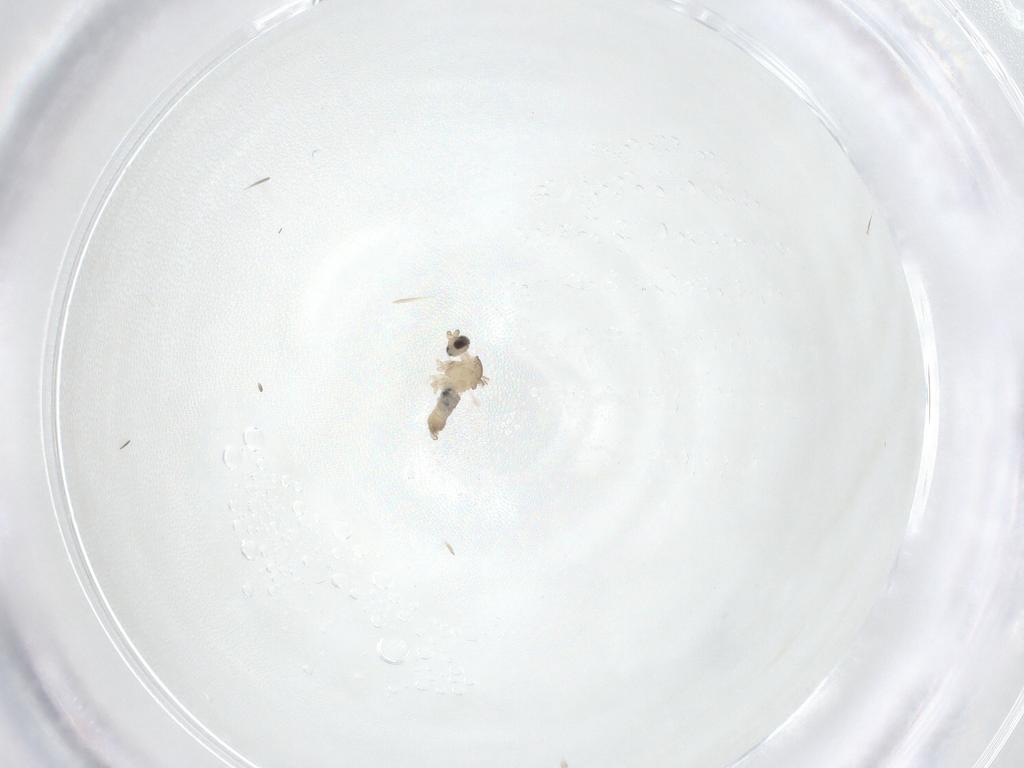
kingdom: Animalia
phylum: Arthropoda
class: Insecta
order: Diptera
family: Cecidomyiidae
